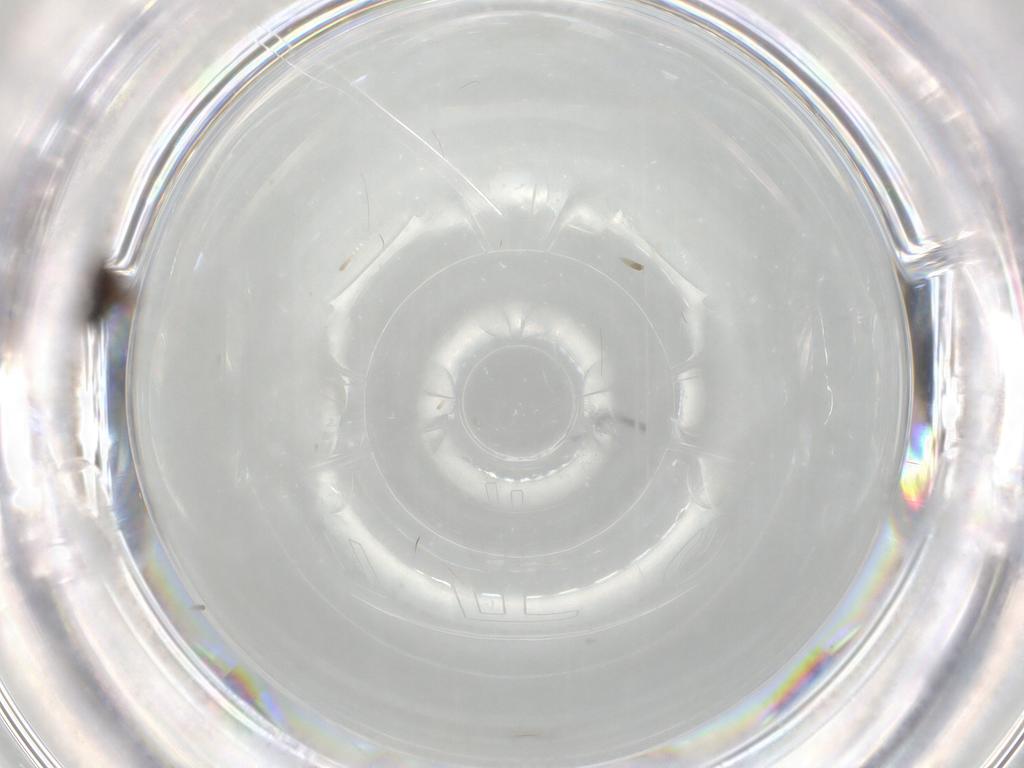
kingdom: Animalia
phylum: Arthropoda
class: Insecta
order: Diptera
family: Cecidomyiidae
